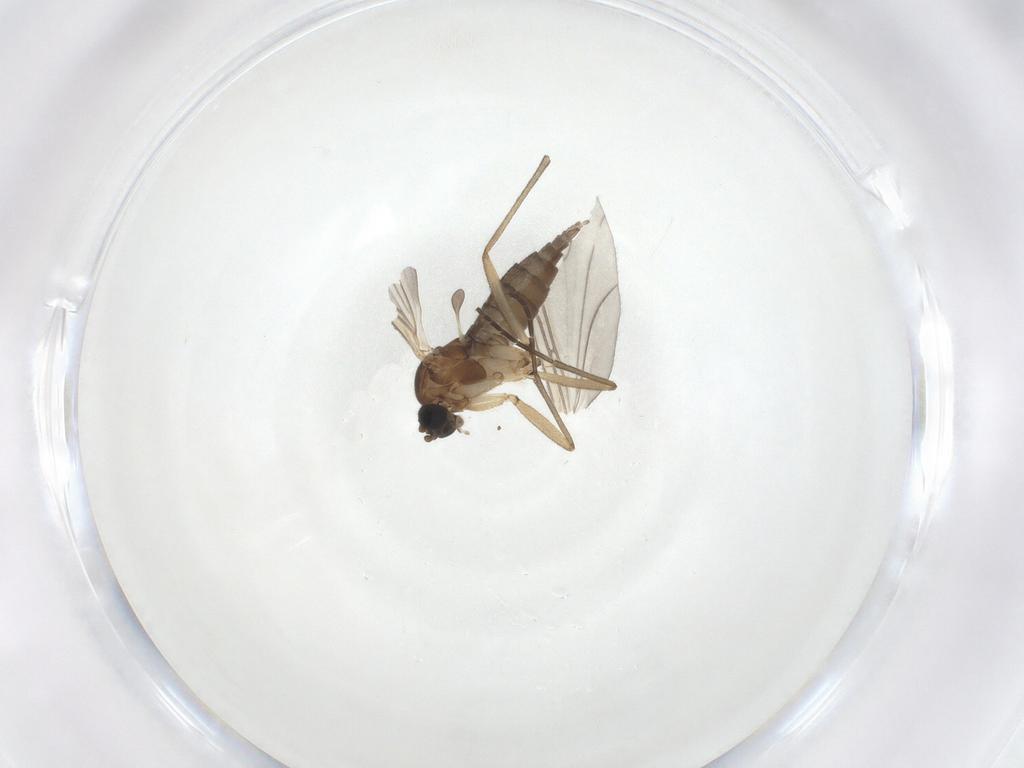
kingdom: Animalia
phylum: Arthropoda
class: Insecta
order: Diptera
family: Sciaridae
